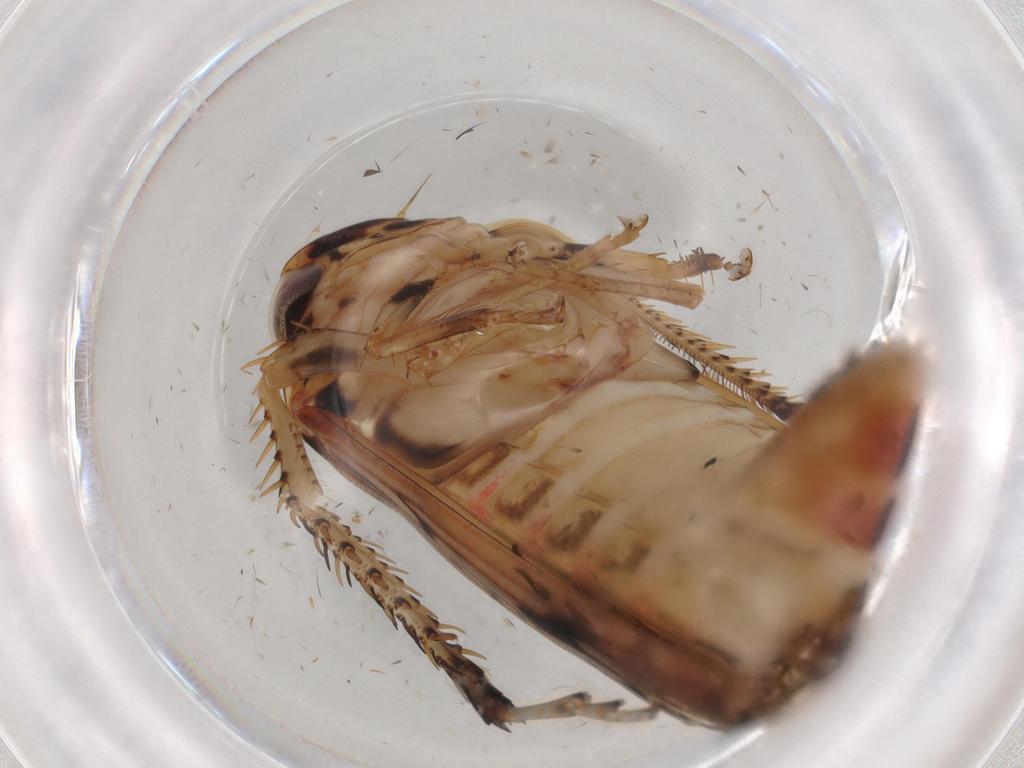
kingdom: Animalia
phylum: Arthropoda
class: Insecta
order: Hemiptera
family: Cicadellidae
